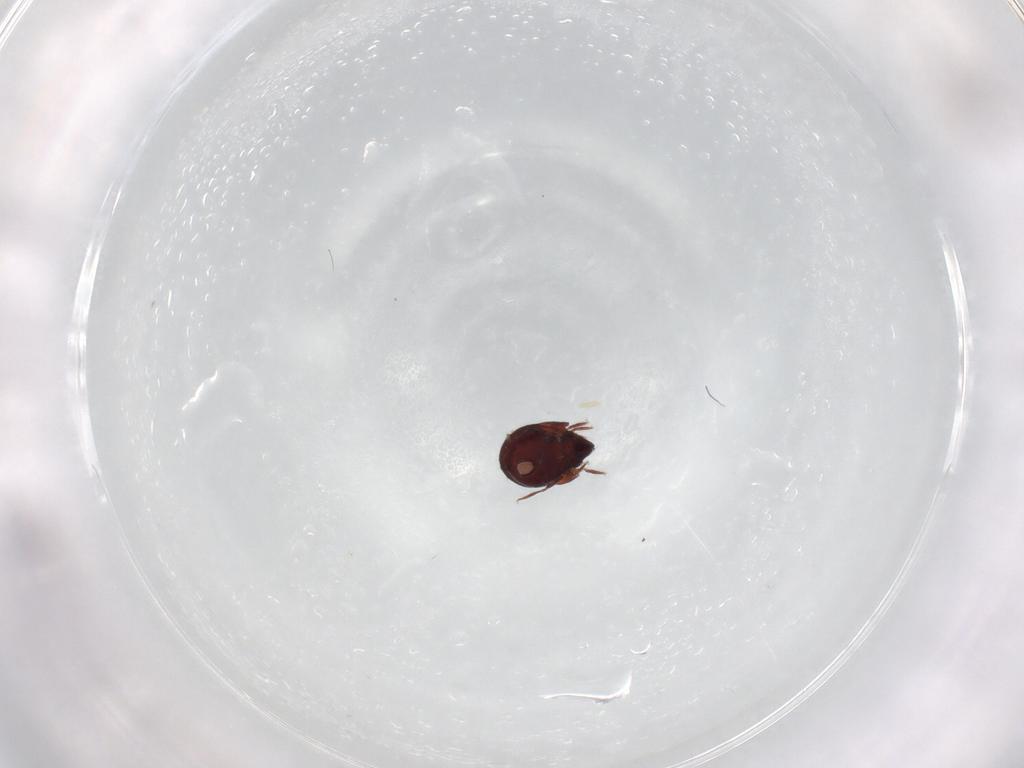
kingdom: Animalia
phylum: Arthropoda
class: Arachnida
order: Sarcoptiformes
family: Humerobatidae
